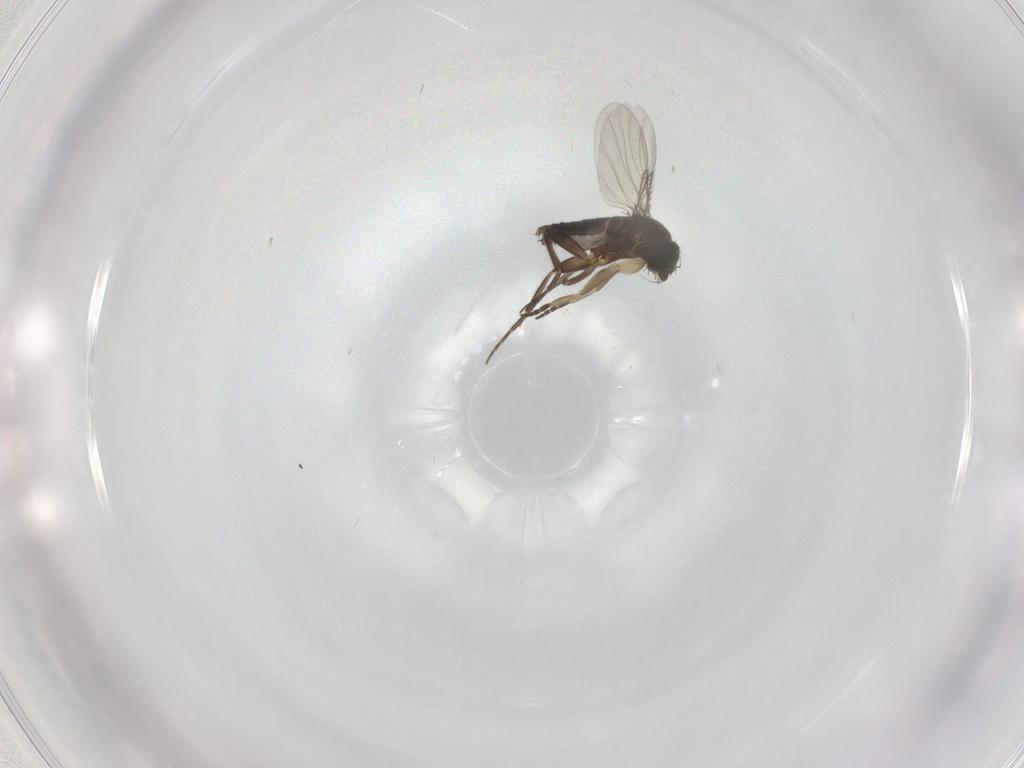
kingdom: Animalia
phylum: Arthropoda
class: Insecta
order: Diptera
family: Phoridae
